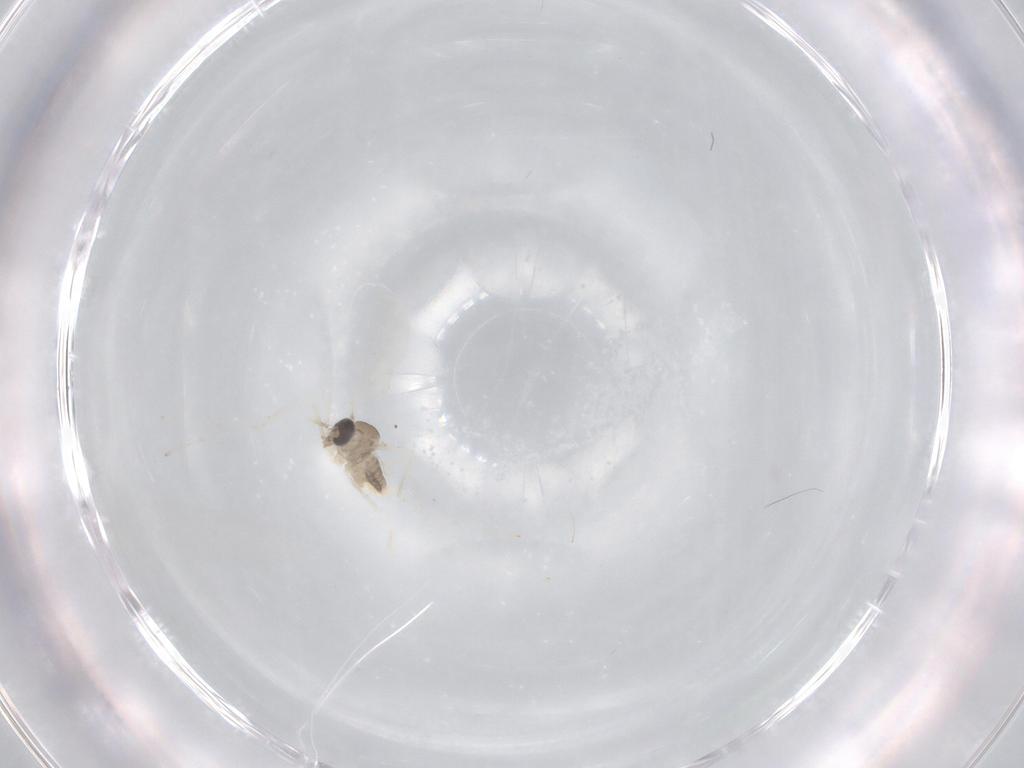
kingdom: Animalia
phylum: Arthropoda
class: Insecta
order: Diptera
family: Cecidomyiidae
